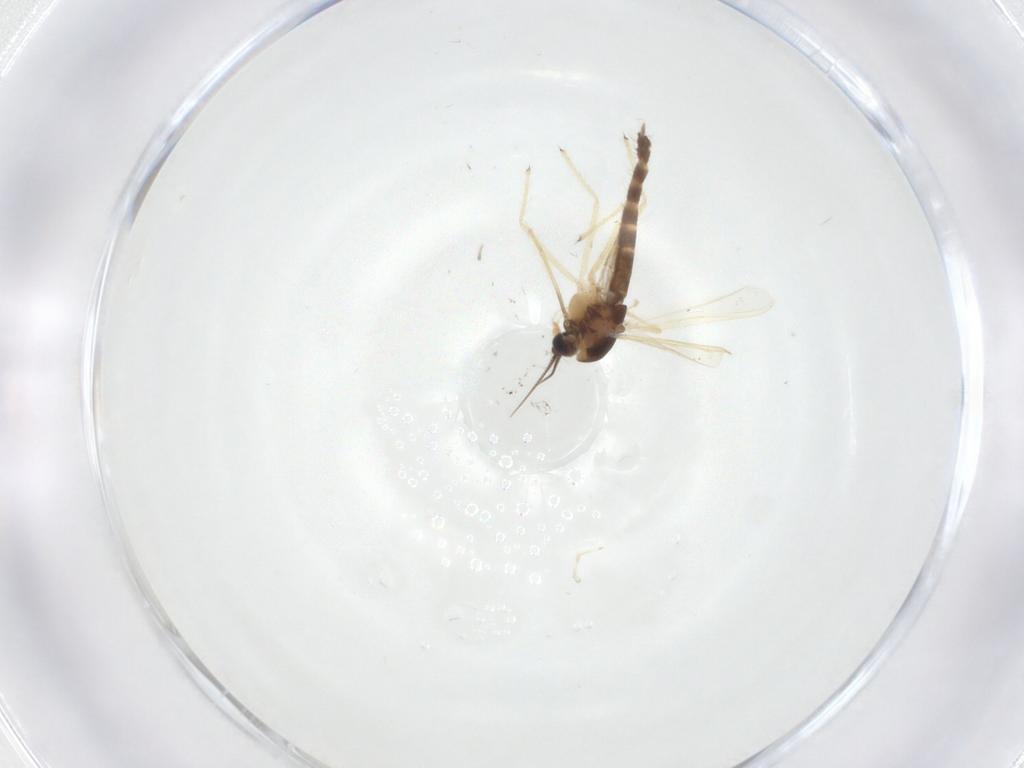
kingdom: Animalia
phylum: Arthropoda
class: Insecta
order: Diptera
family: Chironomidae
